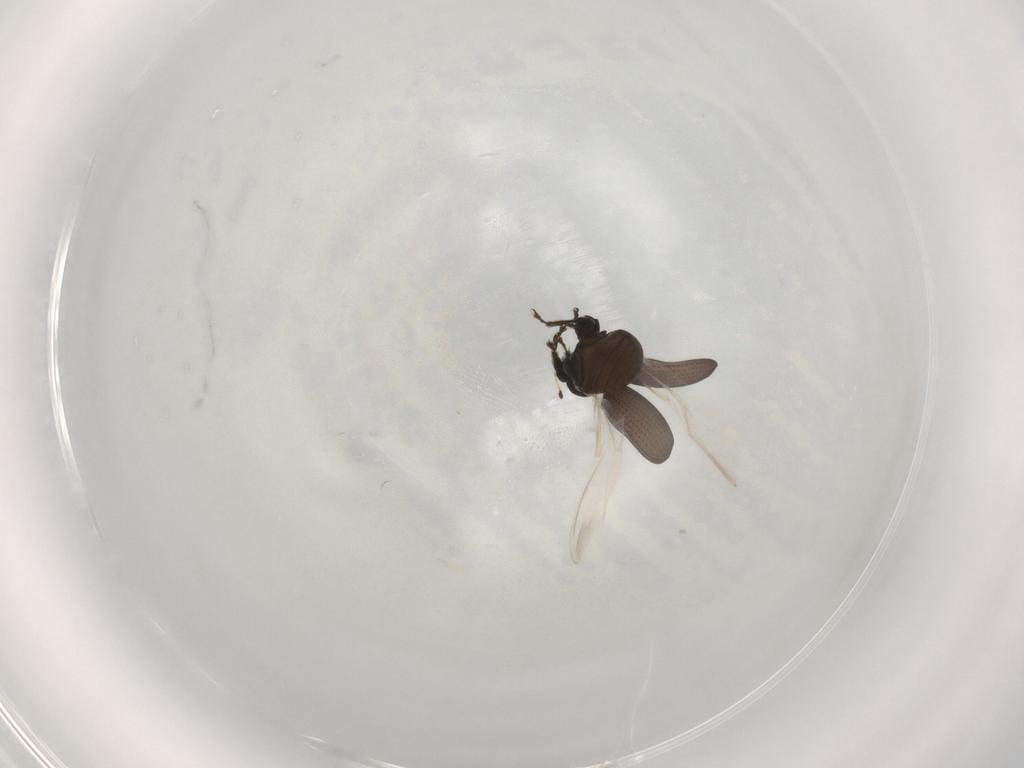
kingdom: Animalia
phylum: Arthropoda
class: Insecta
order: Coleoptera
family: Curculionidae
